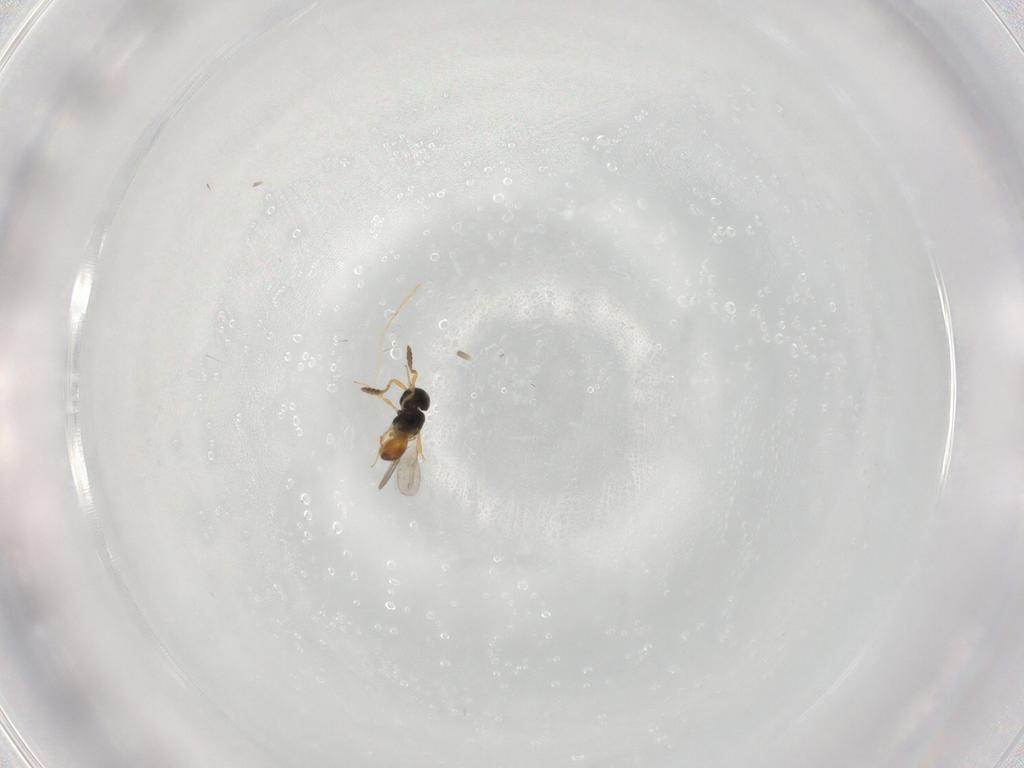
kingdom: Animalia
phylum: Arthropoda
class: Insecta
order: Hymenoptera
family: Scelionidae
